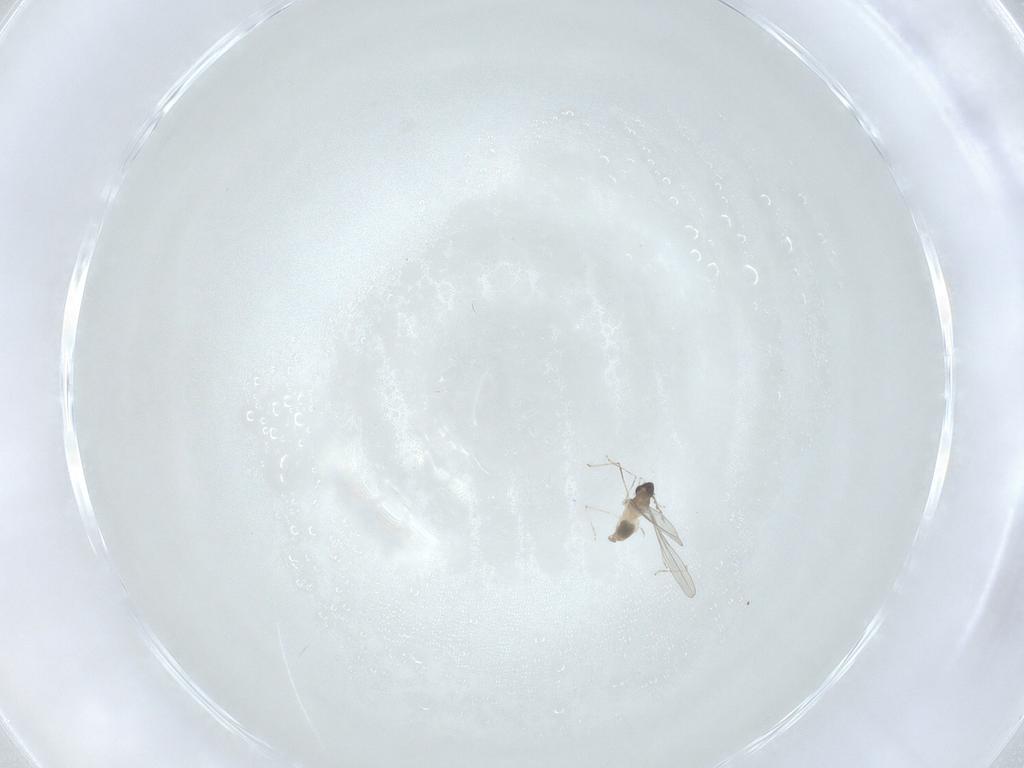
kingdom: Animalia
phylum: Arthropoda
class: Insecta
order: Diptera
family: Cecidomyiidae
